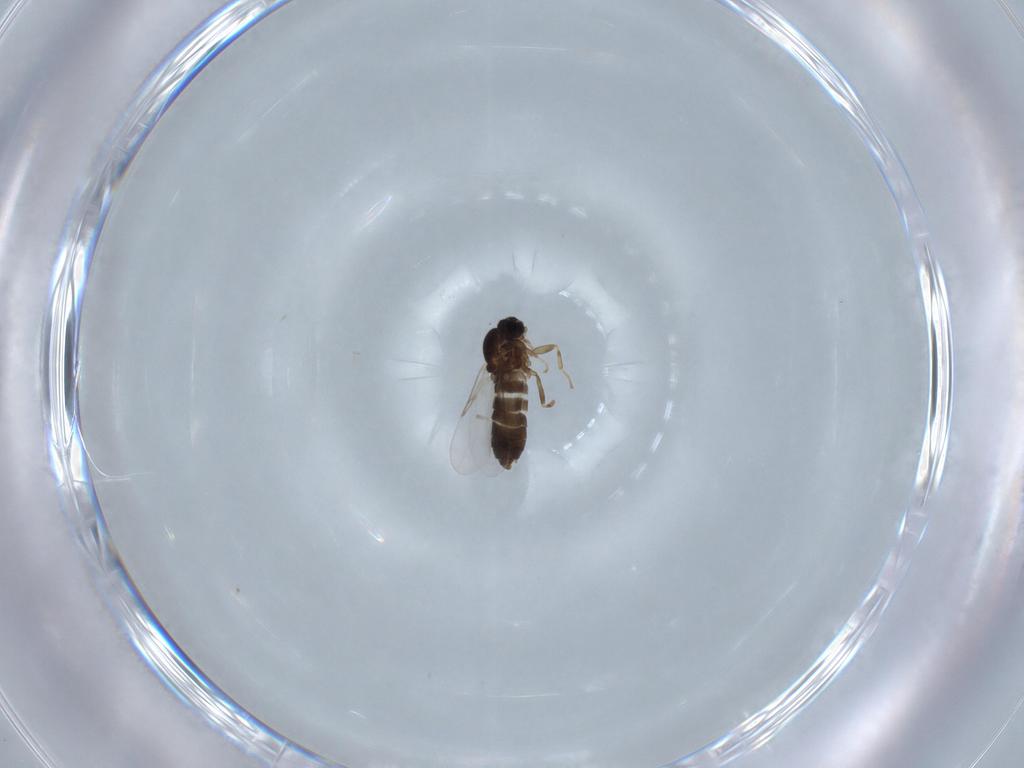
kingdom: Animalia
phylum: Arthropoda
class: Insecta
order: Diptera
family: Scatopsidae
